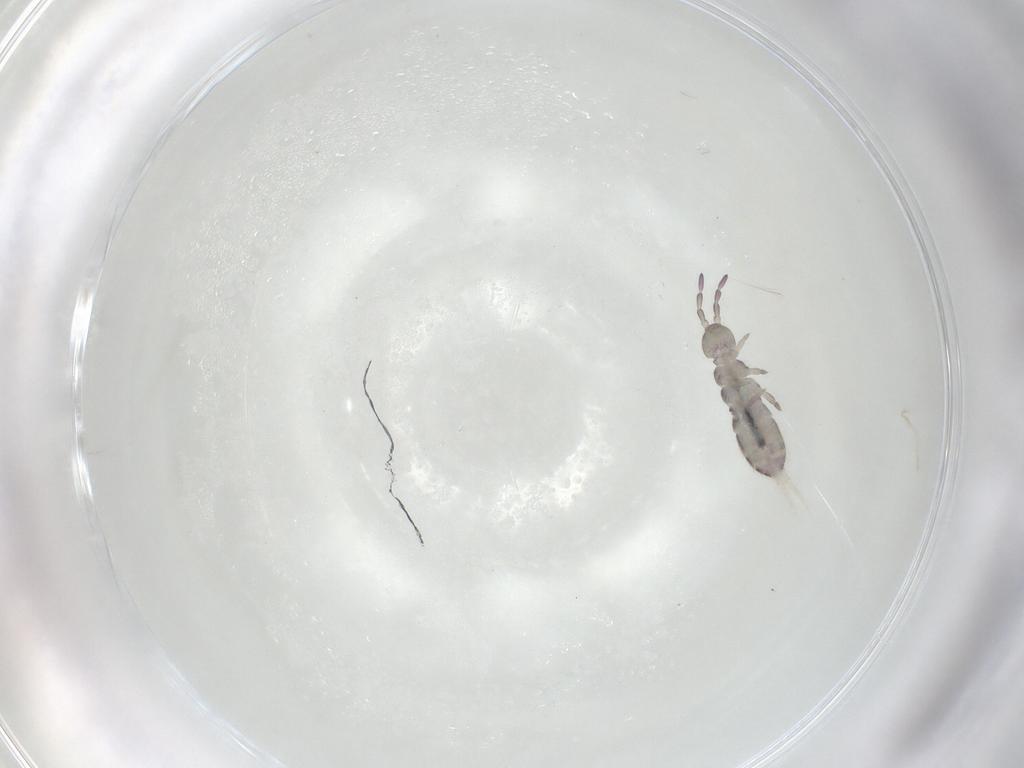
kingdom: Animalia
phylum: Arthropoda
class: Collembola
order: Entomobryomorpha
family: Isotomidae
